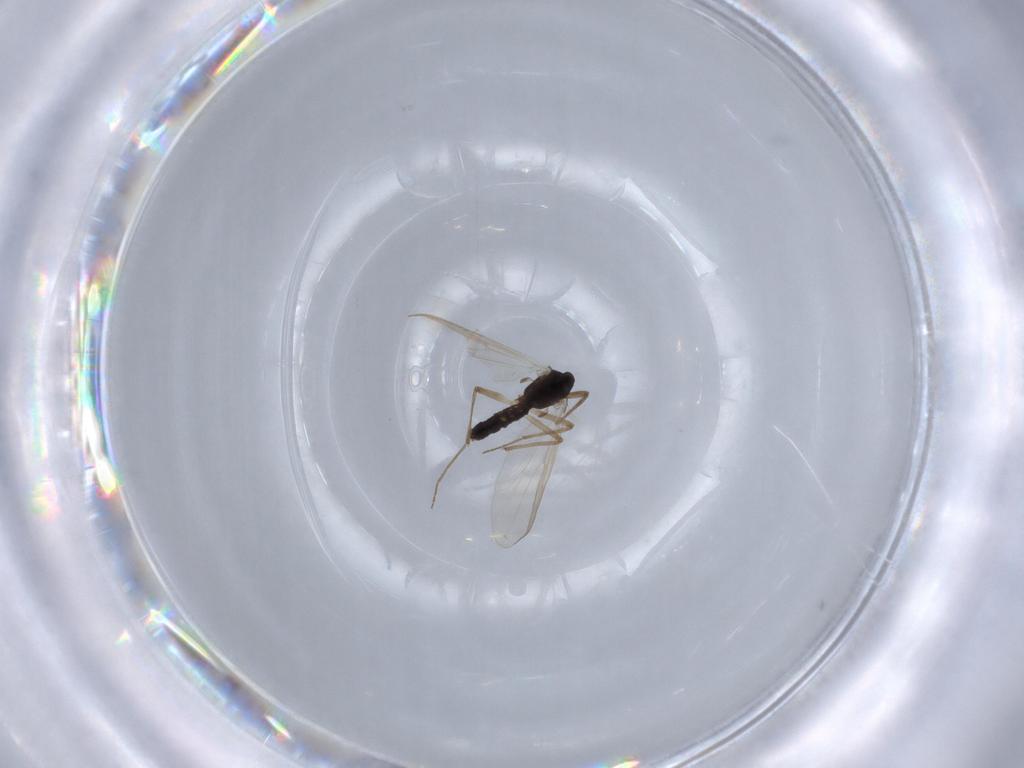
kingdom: Animalia
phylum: Arthropoda
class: Insecta
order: Diptera
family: Chironomidae
